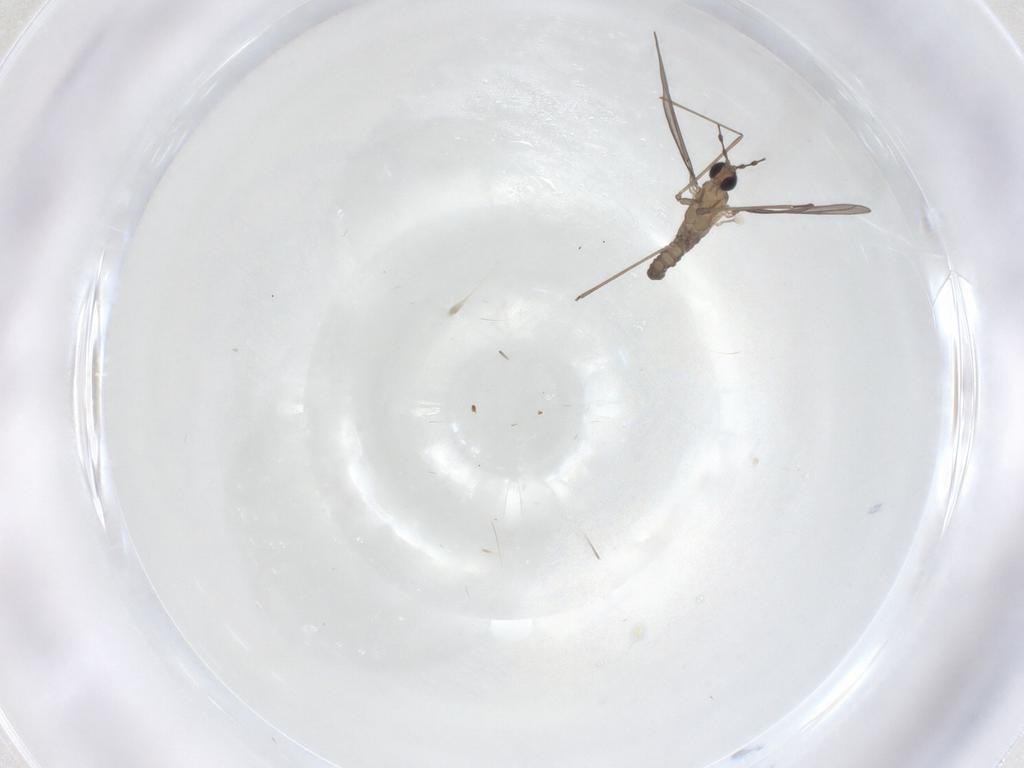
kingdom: Animalia
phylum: Arthropoda
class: Insecta
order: Diptera
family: Cecidomyiidae
